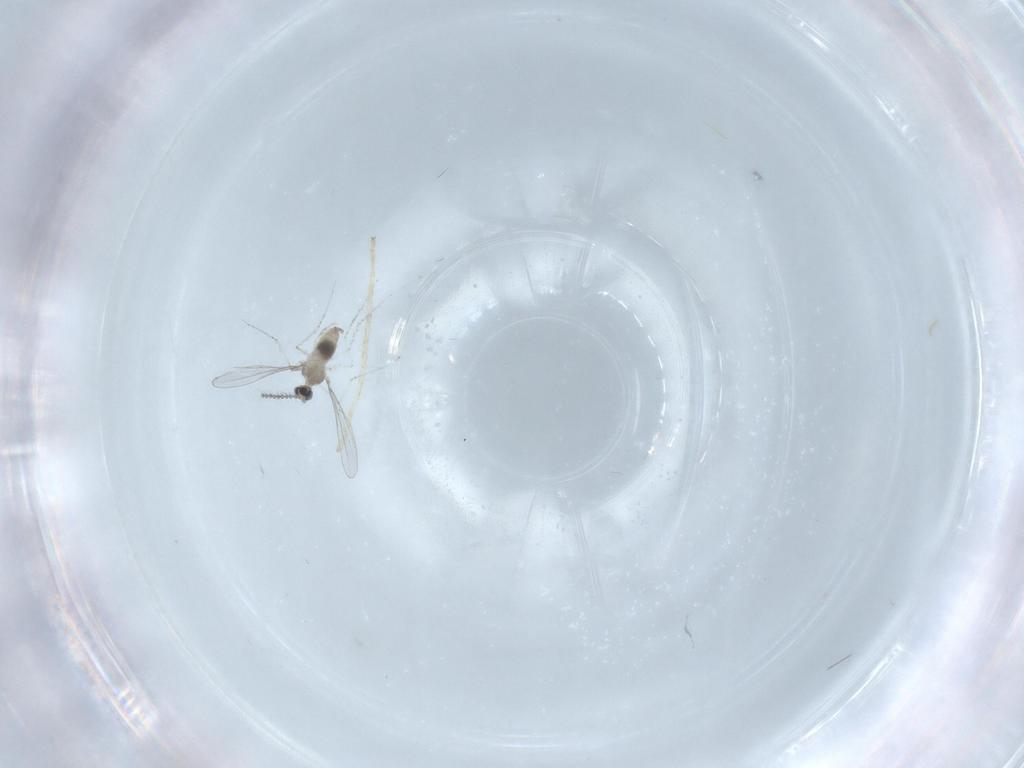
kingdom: Animalia
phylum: Arthropoda
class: Insecta
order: Diptera
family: Cecidomyiidae
